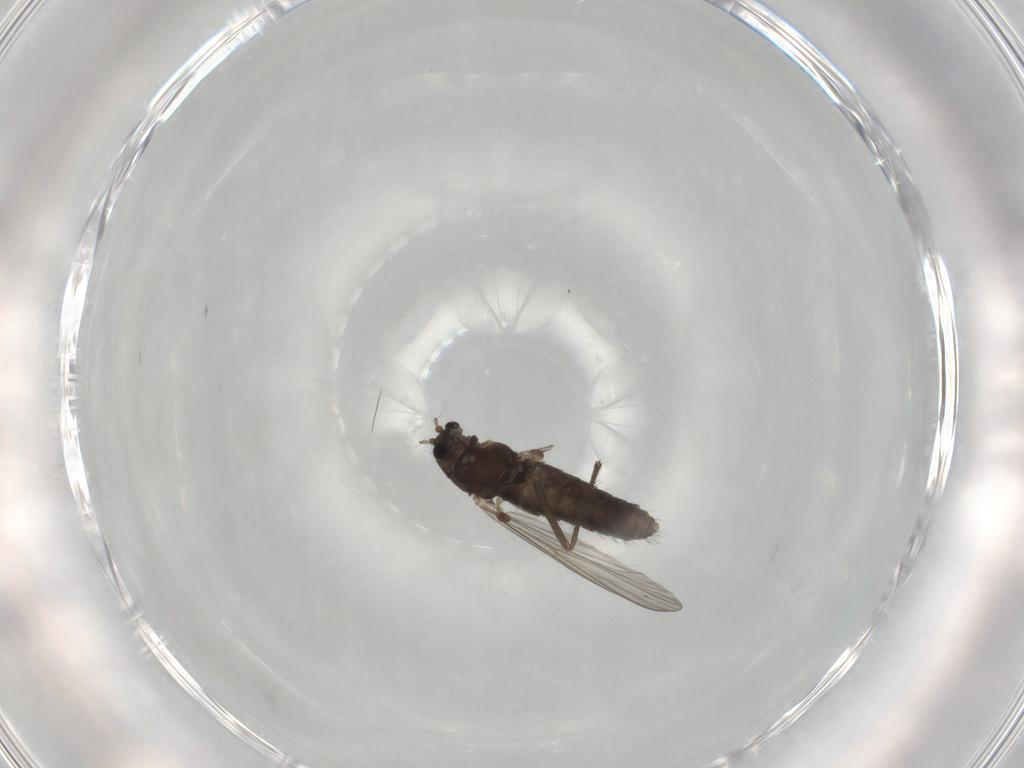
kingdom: Animalia
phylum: Arthropoda
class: Insecta
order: Diptera
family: Chironomidae
